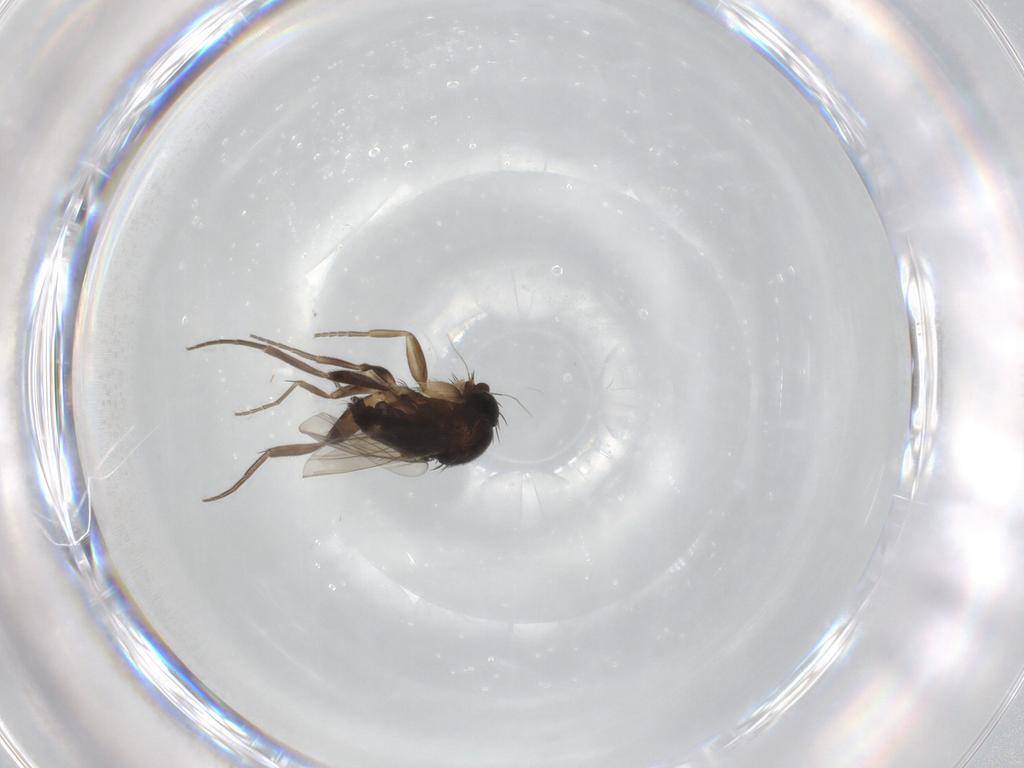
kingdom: Animalia
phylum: Arthropoda
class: Insecta
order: Diptera
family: Phoridae
